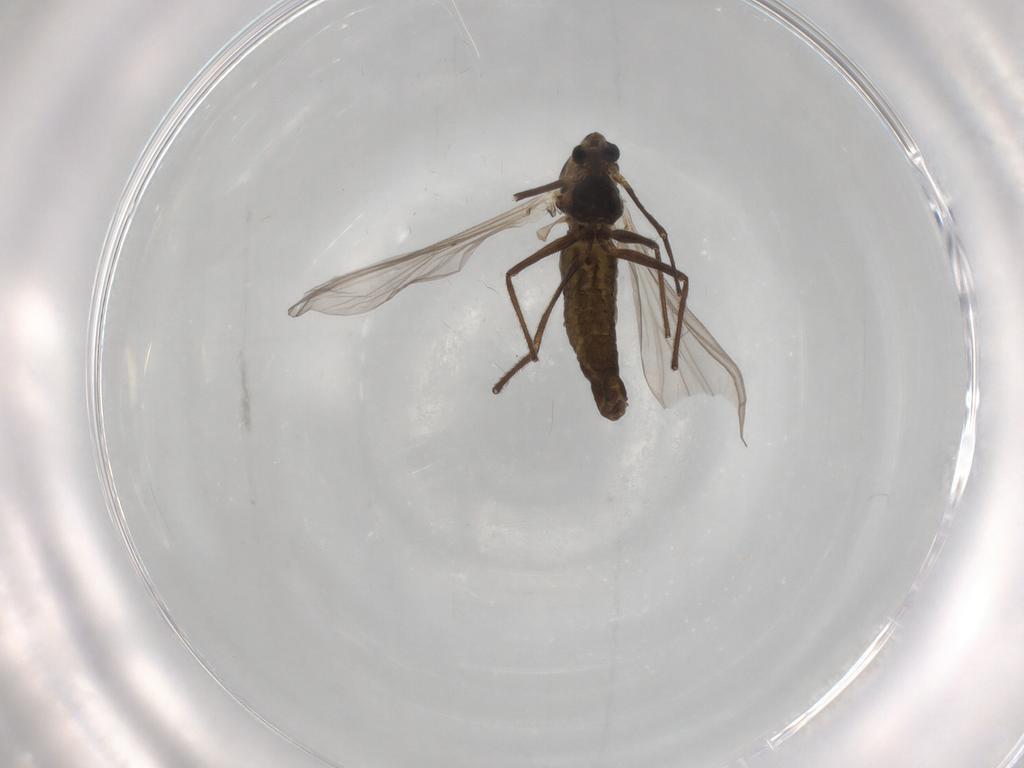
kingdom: Animalia
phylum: Arthropoda
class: Insecta
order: Diptera
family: Chironomidae
